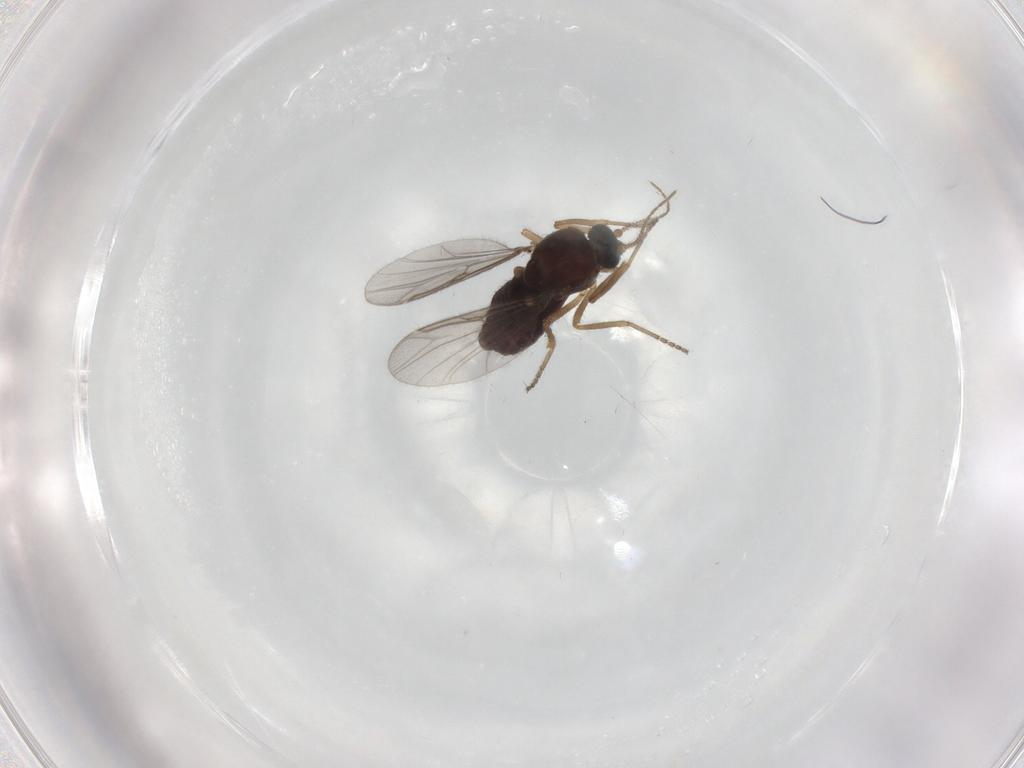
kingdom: Animalia
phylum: Arthropoda
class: Insecta
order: Diptera
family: Ceratopogonidae
